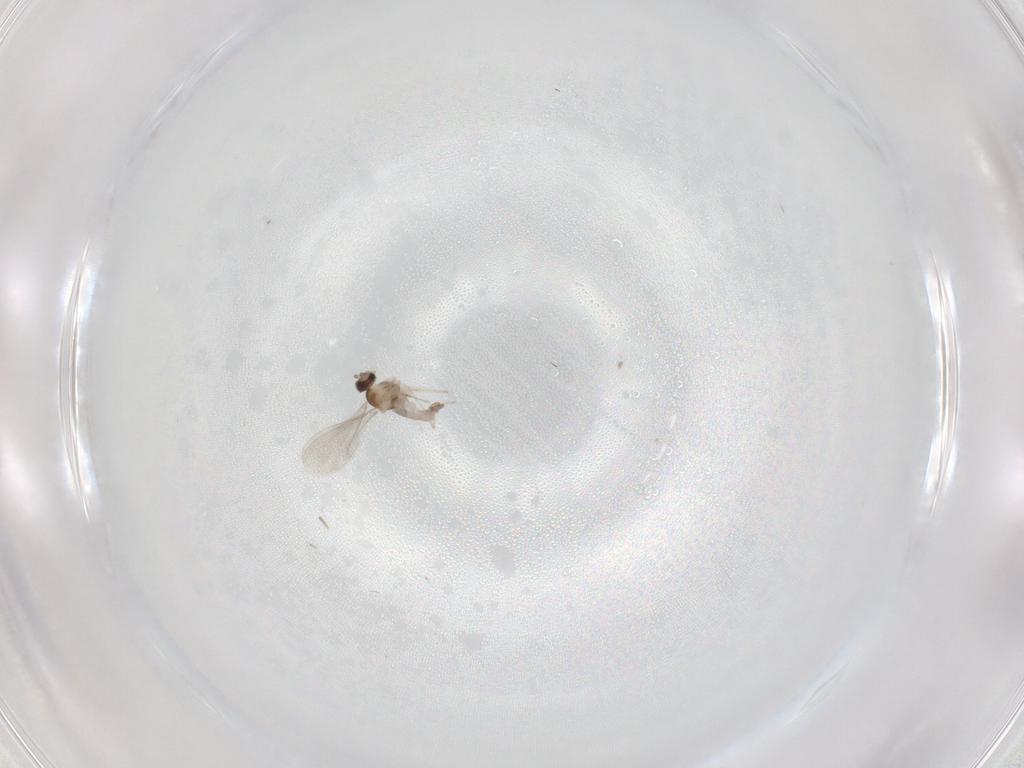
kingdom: Animalia
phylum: Arthropoda
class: Insecta
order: Diptera
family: Cecidomyiidae
